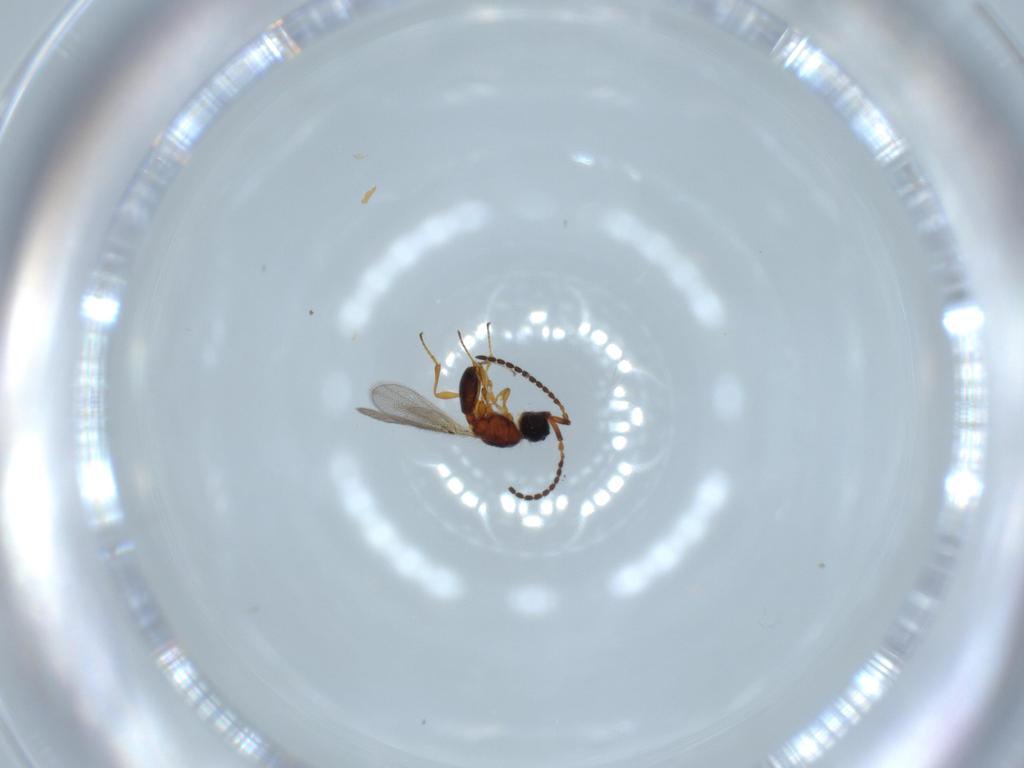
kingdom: Animalia
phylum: Arthropoda
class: Insecta
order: Hymenoptera
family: Diapriidae
